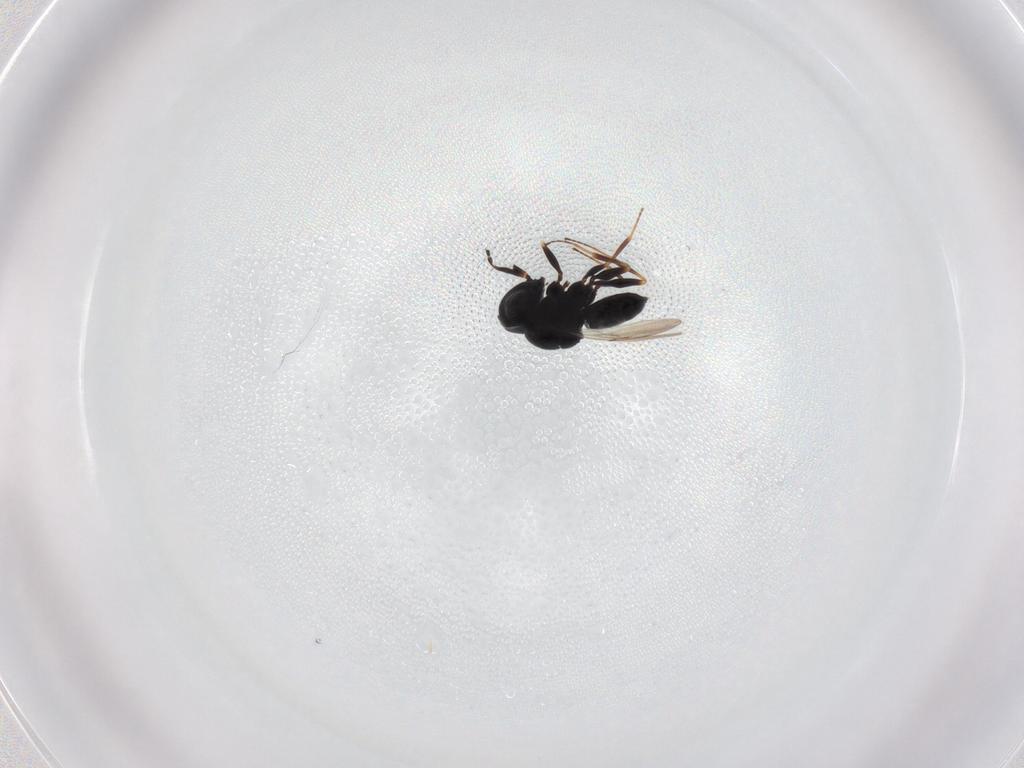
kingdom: Animalia
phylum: Arthropoda
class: Insecta
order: Hymenoptera
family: Scelionidae
